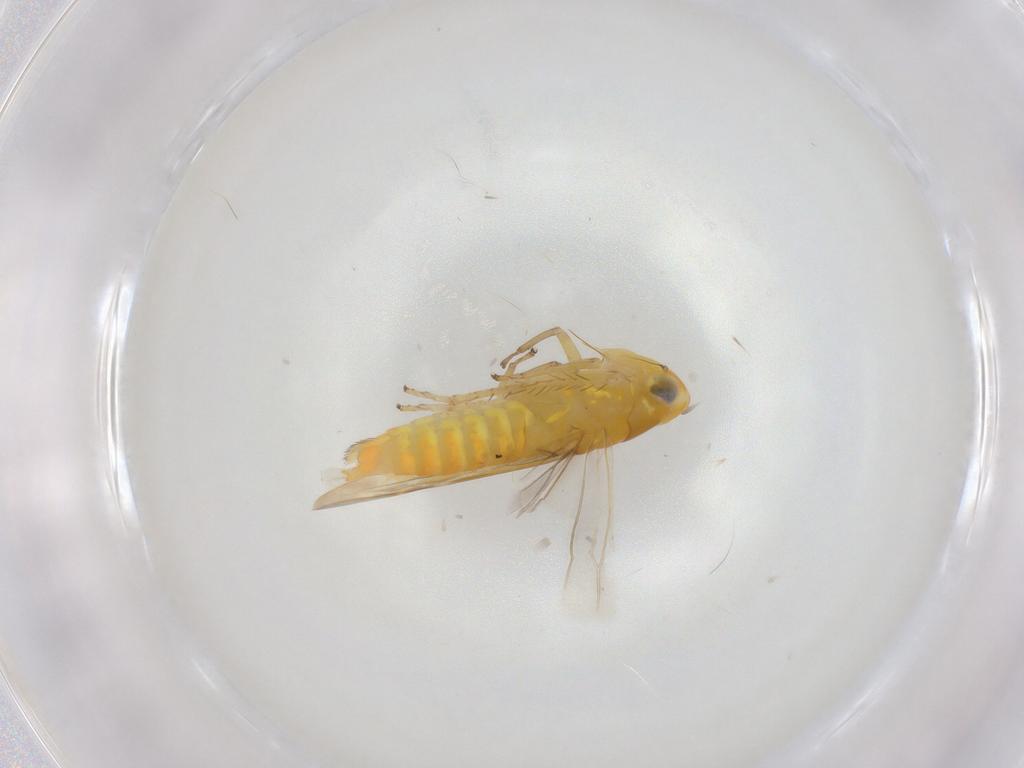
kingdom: Animalia
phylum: Arthropoda
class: Insecta
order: Hemiptera
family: Cicadellidae
